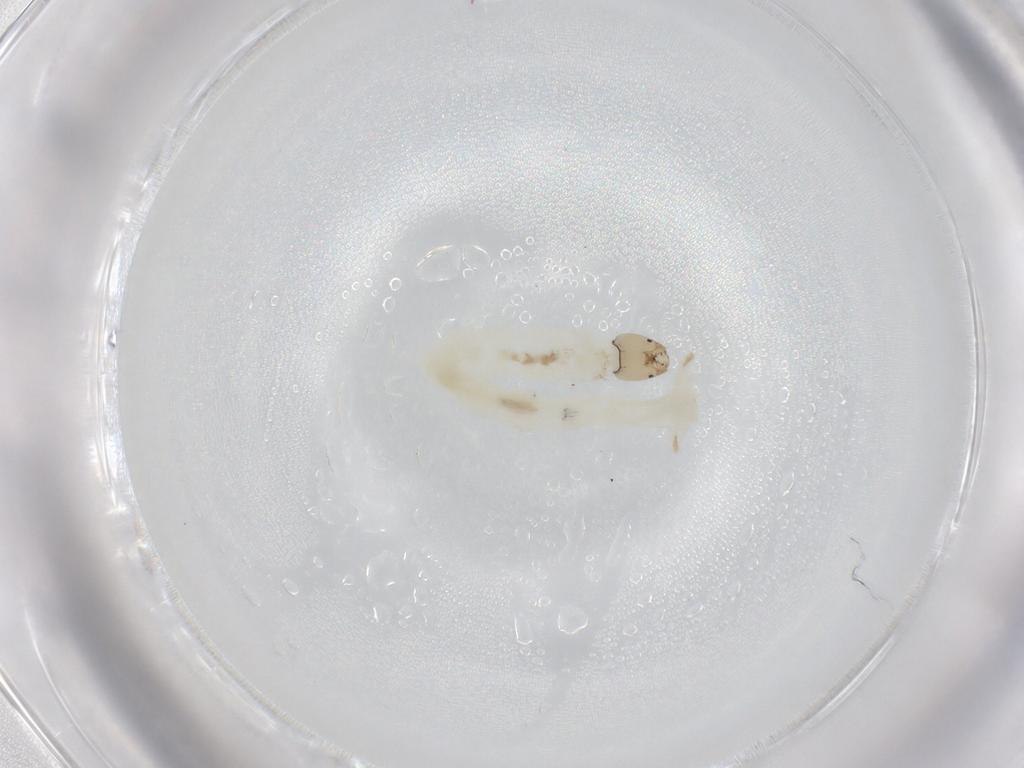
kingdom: Animalia
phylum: Arthropoda
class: Insecta
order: Diptera
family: Chironomidae
